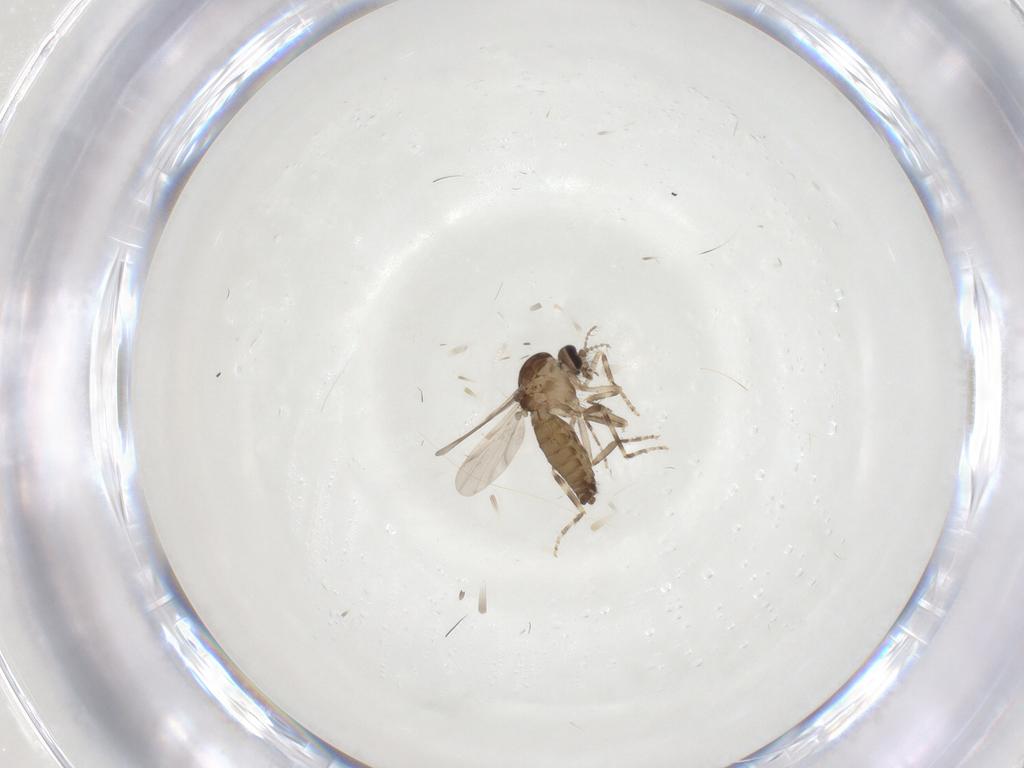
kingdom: Animalia
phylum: Arthropoda
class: Insecta
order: Diptera
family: Ceratopogonidae
